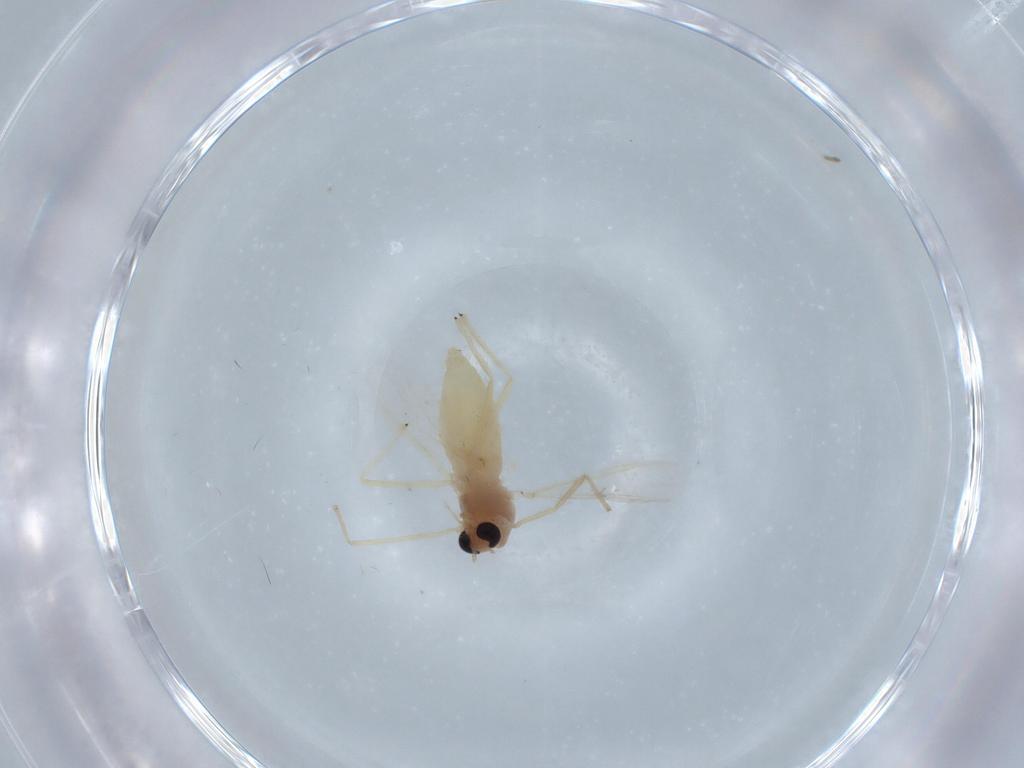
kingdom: Animalia
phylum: Arthropoda
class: Insecta
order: Diptera
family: Chironomidae
